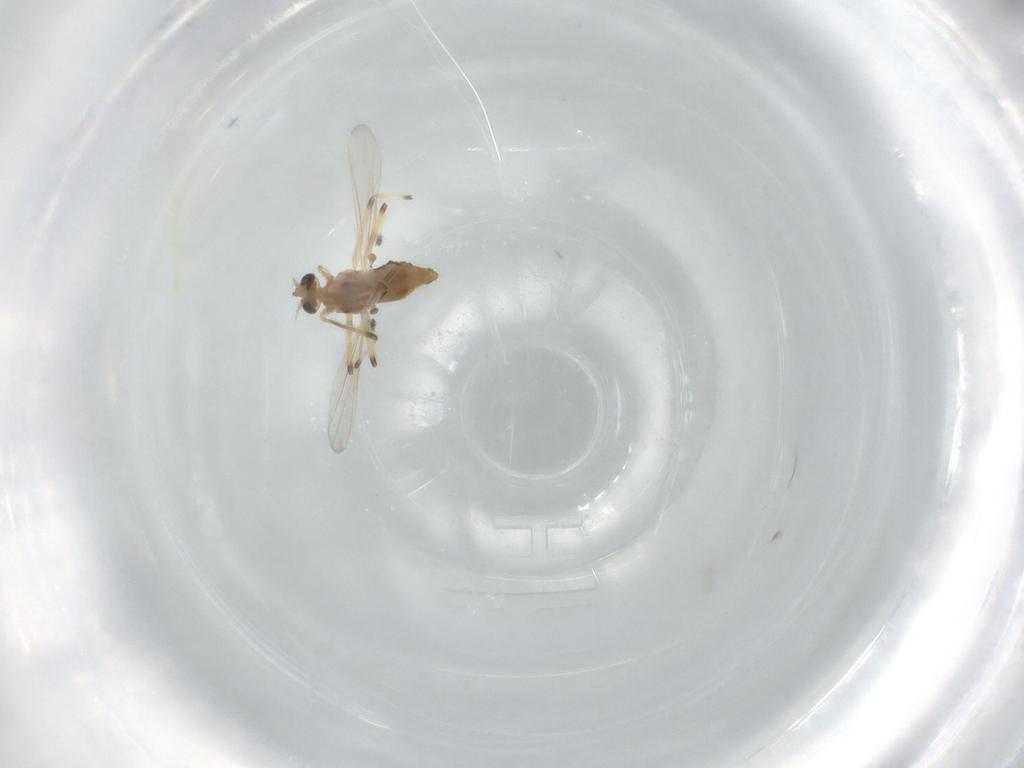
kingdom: Animalia
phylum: Arthropoda
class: Insecta
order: Diptera
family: Chironomidae
